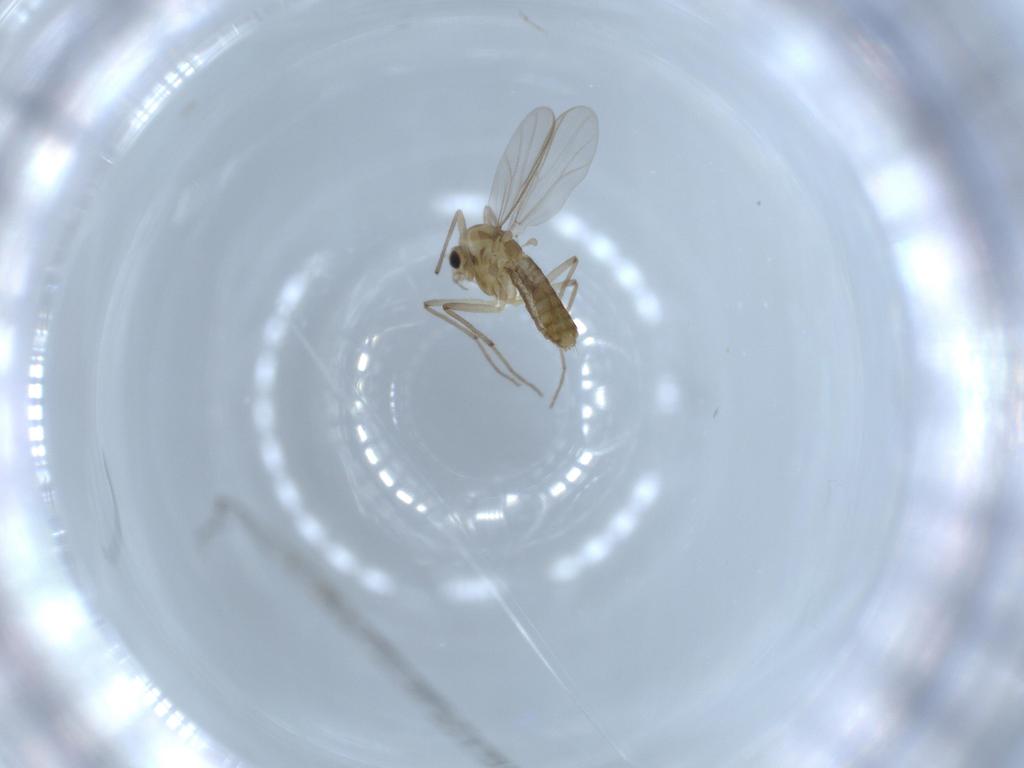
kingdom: Animalia
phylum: Arthropoda
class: Insecta
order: Diptera
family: Chironomidae
